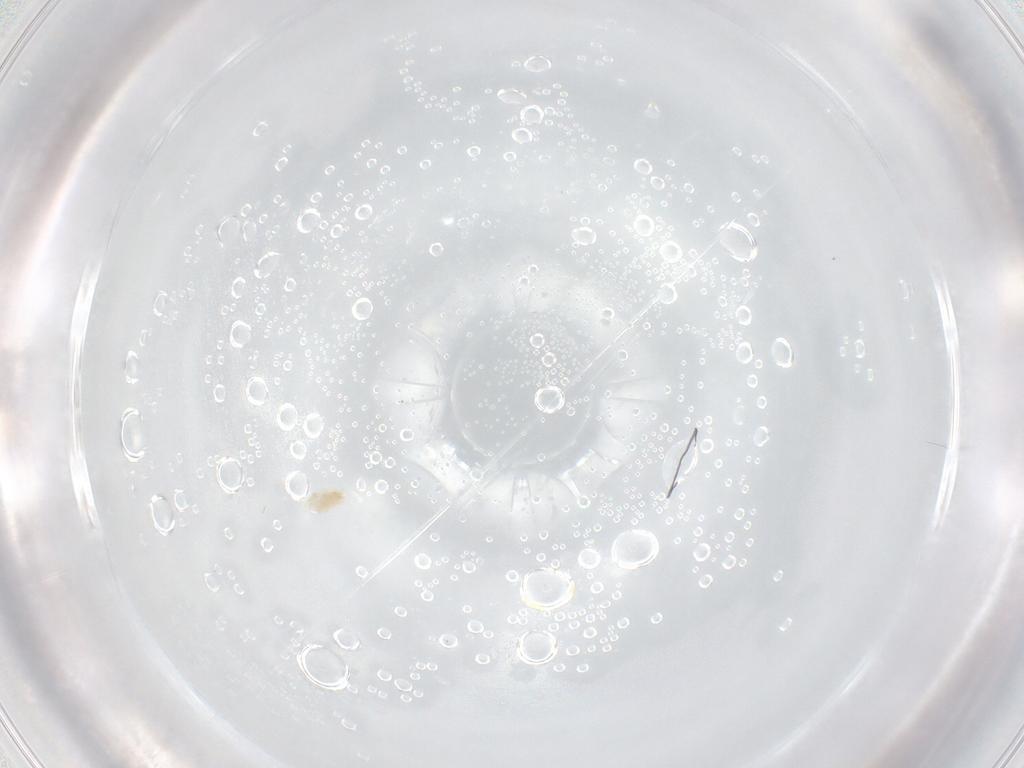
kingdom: Animalia
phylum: Arthropoda
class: Arachnida
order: Trombidiformes
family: Eupodidae
